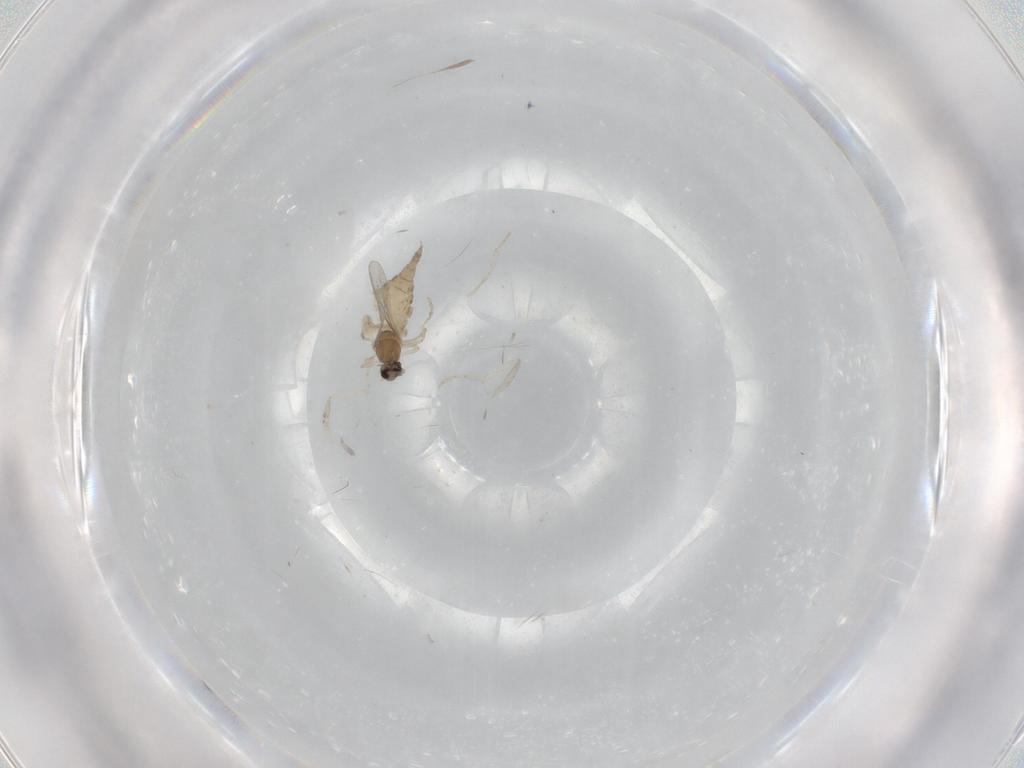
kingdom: Animalia
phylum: Arthropoda
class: Insecta
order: Diptera
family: Cecidomyiidae
